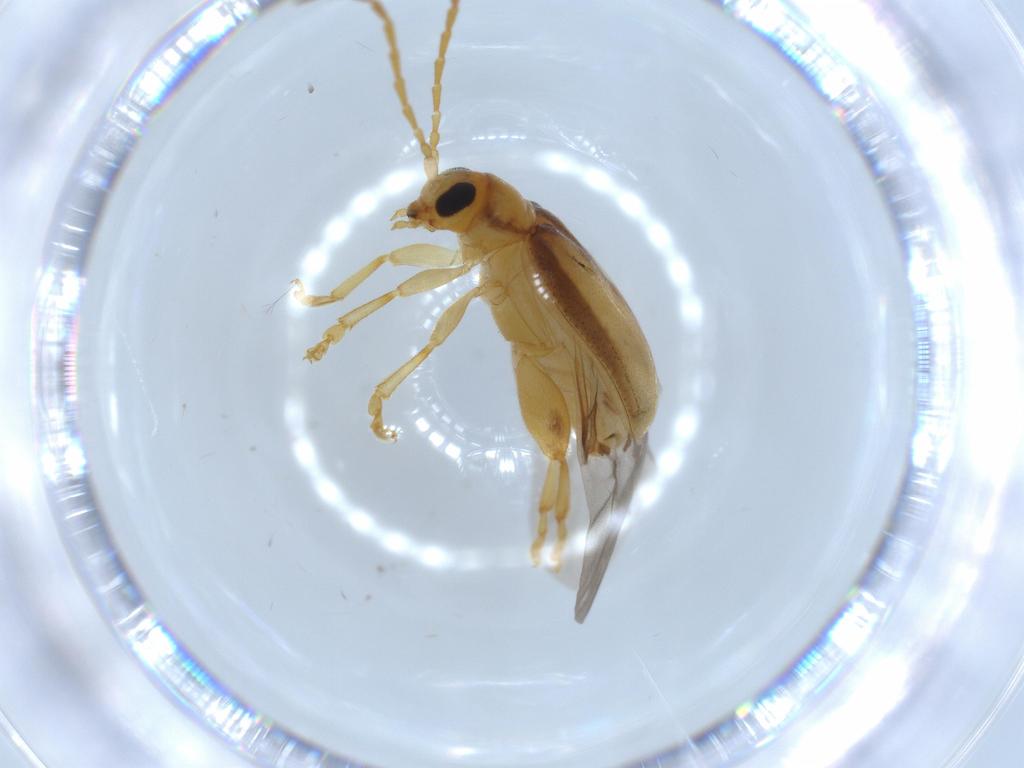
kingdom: Animalia
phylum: Arthropoda
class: Insecta
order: Coleoptera
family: Chrysomelidae
